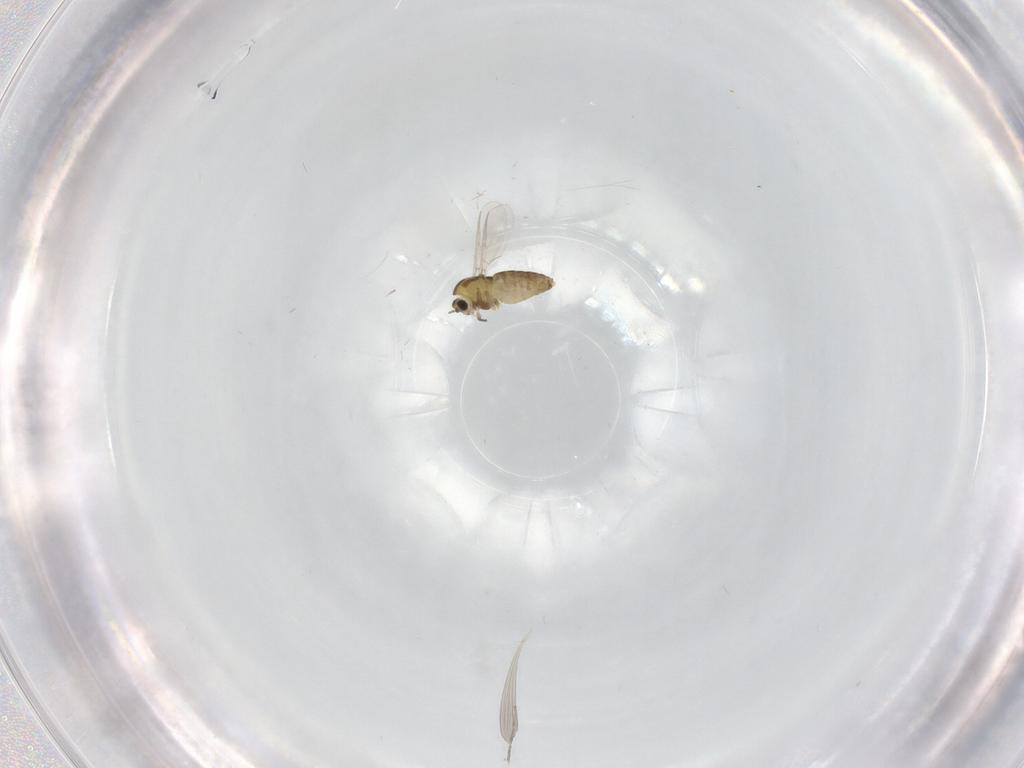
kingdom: Animalia
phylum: Arthropoda
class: Insecta
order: Diptera
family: Chironomidae
